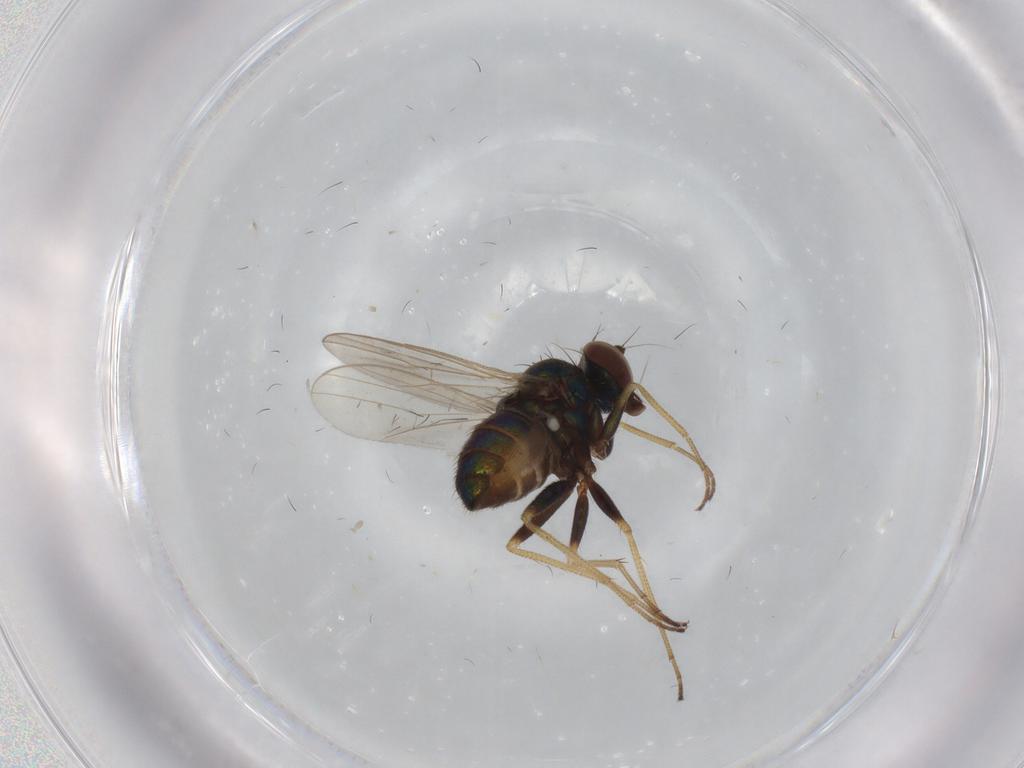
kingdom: Animalia
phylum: Arthropoda
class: Insecta
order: Diptera
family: Dolichopodidae
